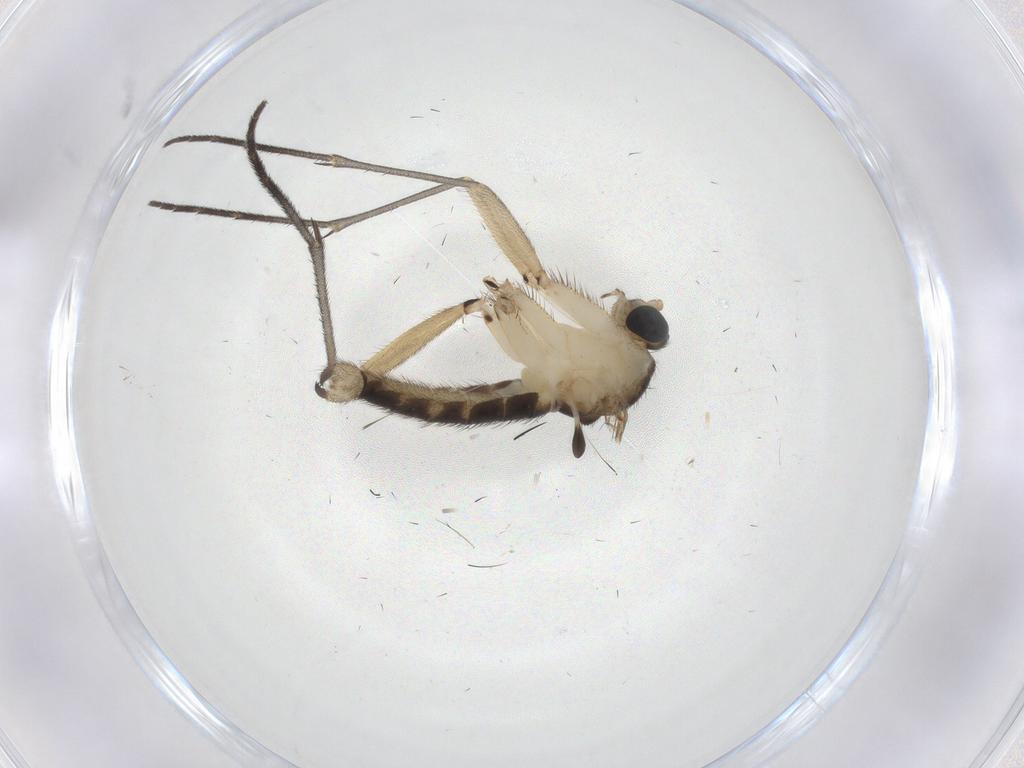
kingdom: Animalia
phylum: Arthropoda
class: Insecta
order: Diptera
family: Sciaridae
